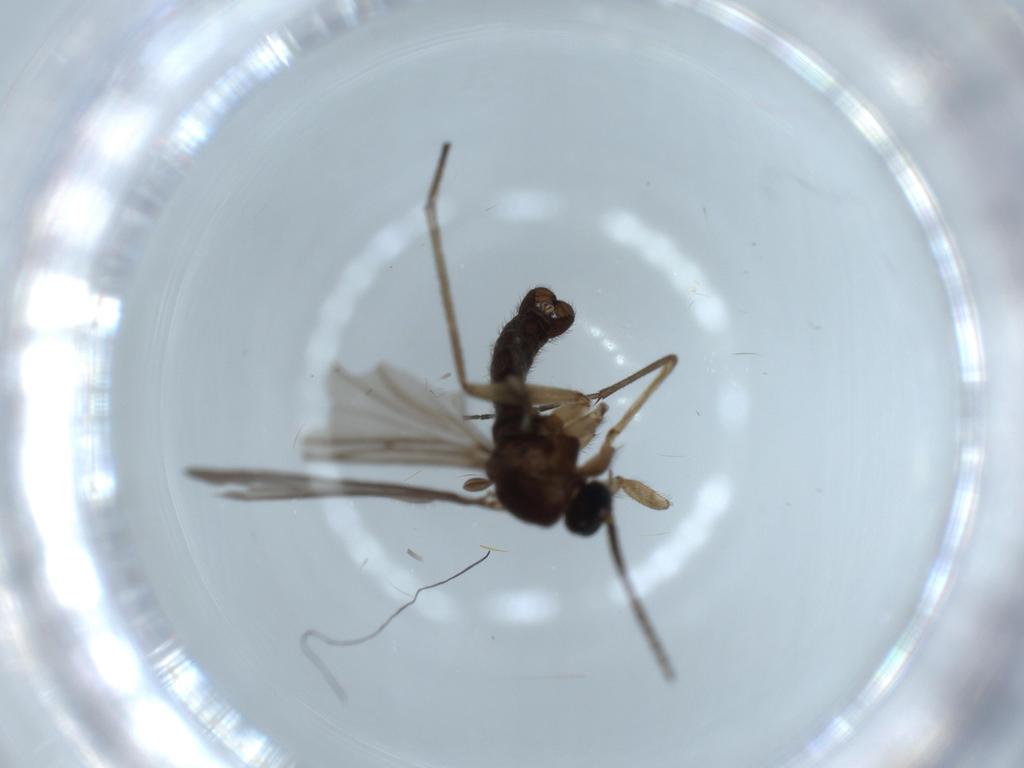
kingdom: Animalia
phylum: Arthropoda
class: Insecta
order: Diptera
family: Sciaridae
